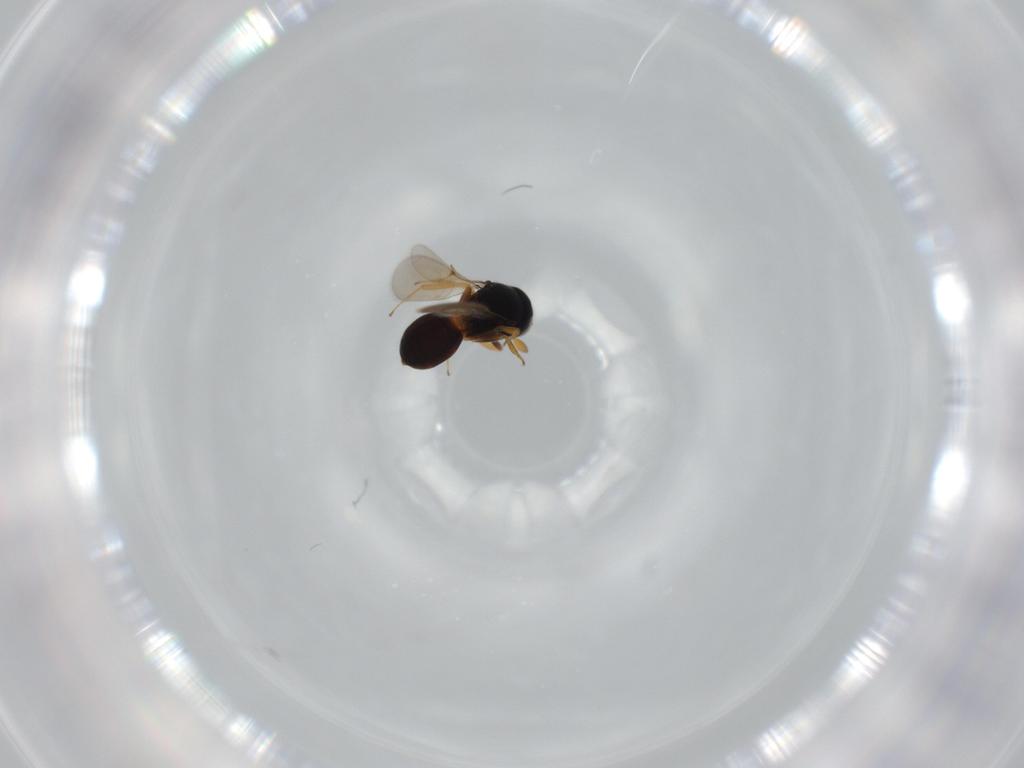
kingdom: Animalia
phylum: Arthropoda
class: Insecta
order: Hymenoptera
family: Scelionidae
